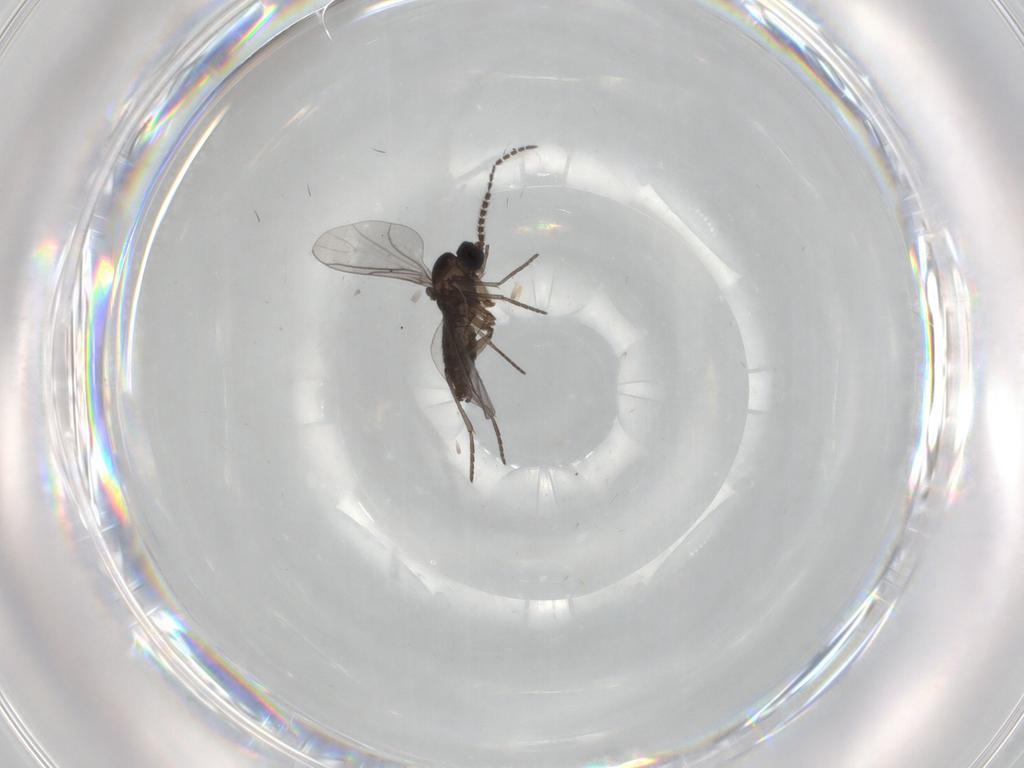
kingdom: Animalia
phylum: Arthropoda
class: Insecta
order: Diptera
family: Cecidomyiidae
